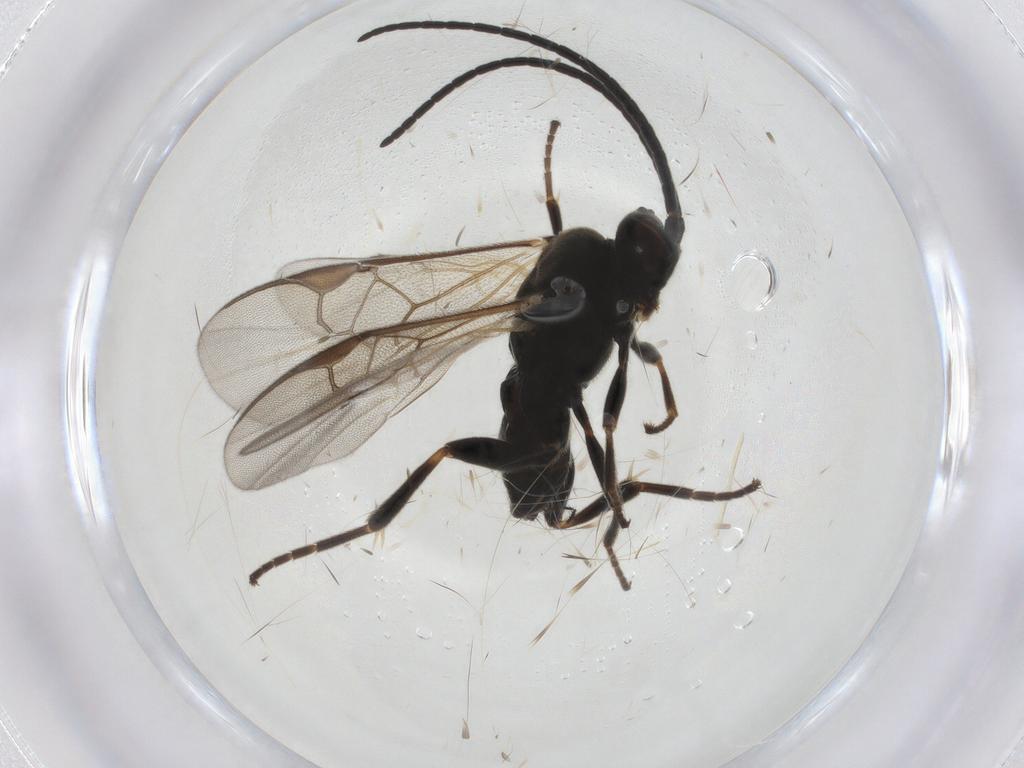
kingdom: Animalia
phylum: Arthropoda
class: Insecta
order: Hymenoptera
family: Braconidae
